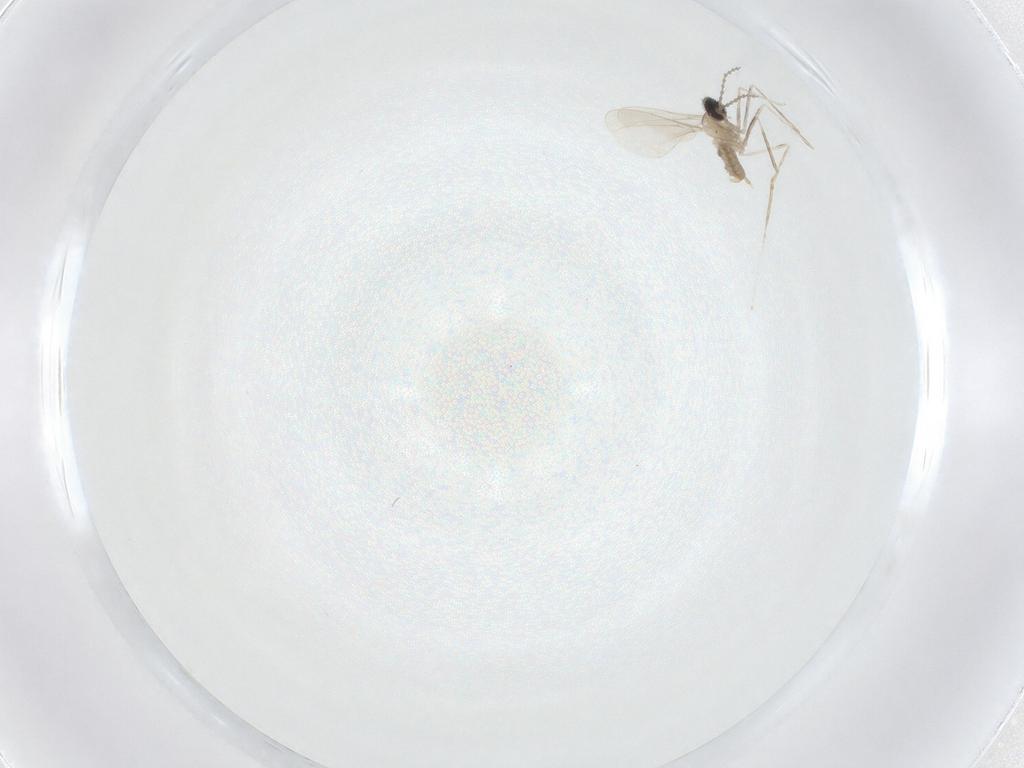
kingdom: Animalia
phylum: Arthropoda
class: Insecta
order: Diptera
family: Cecidomyiidae
